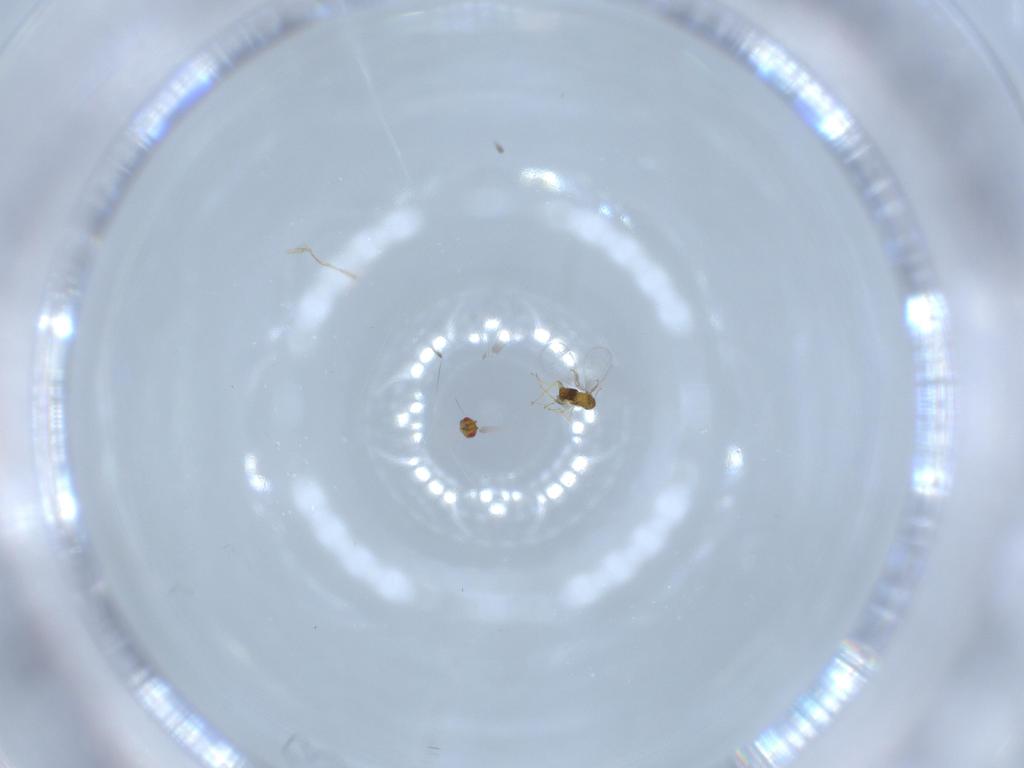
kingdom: Animalia
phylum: Arthropoda
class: Insecta
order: Hymenoptera
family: Trichogrammatidae
